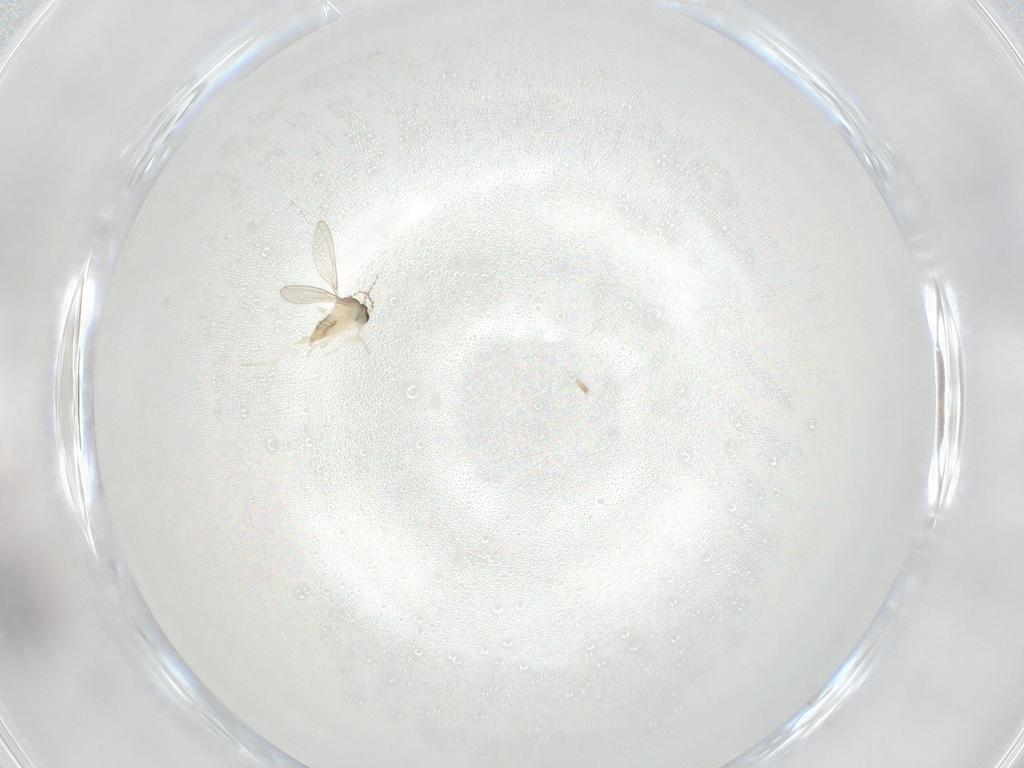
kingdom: Animalia
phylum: Arthropoda
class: Insecta
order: Diptera
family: Cecidomyiidae
